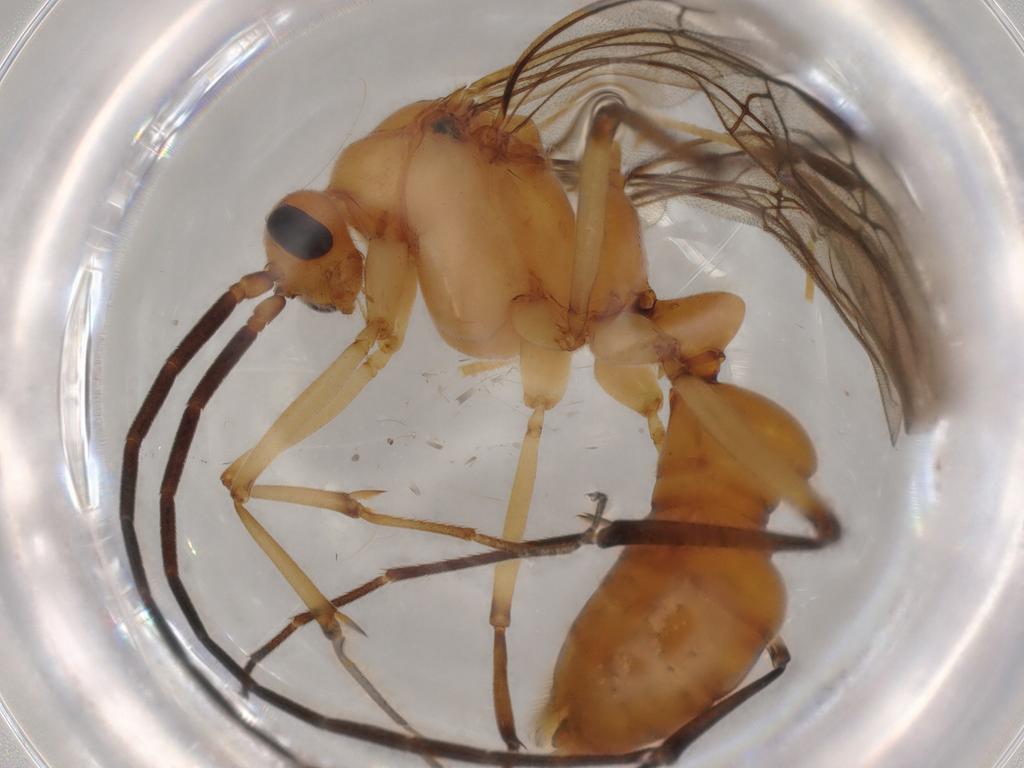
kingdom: Animalia
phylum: Arthropoda
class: Insecta
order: Hymenoptera
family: Formicidae
